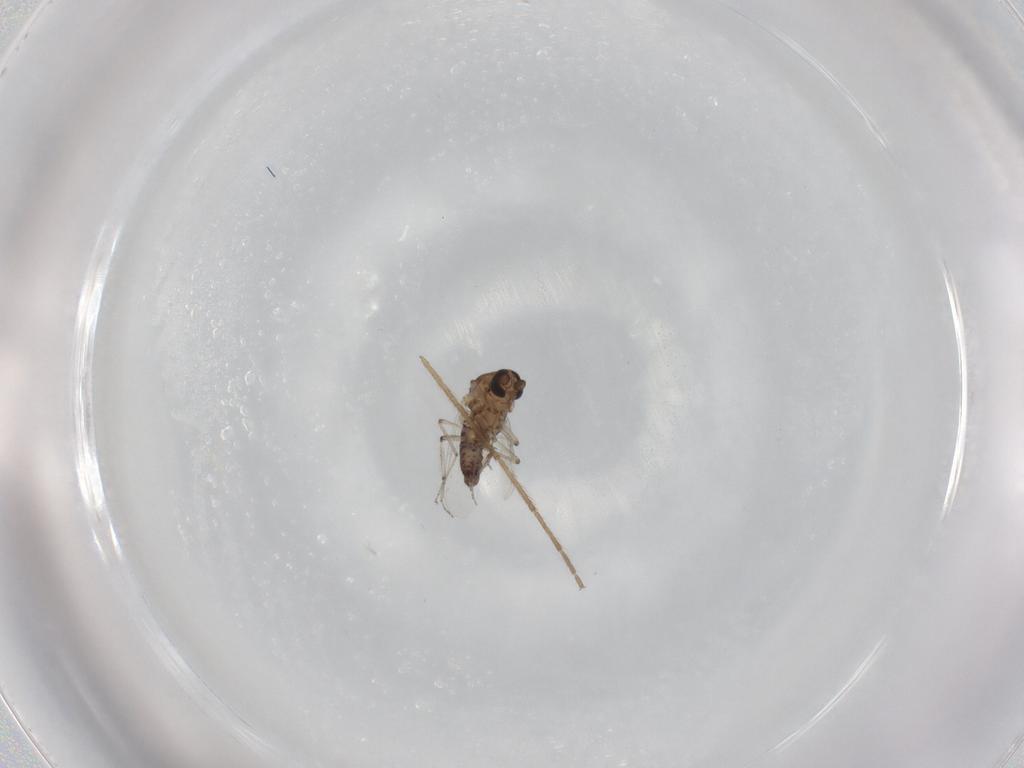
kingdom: Animalia
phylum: Arthropoda
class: Insecta
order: Diptera
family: Ceratopogonidae
